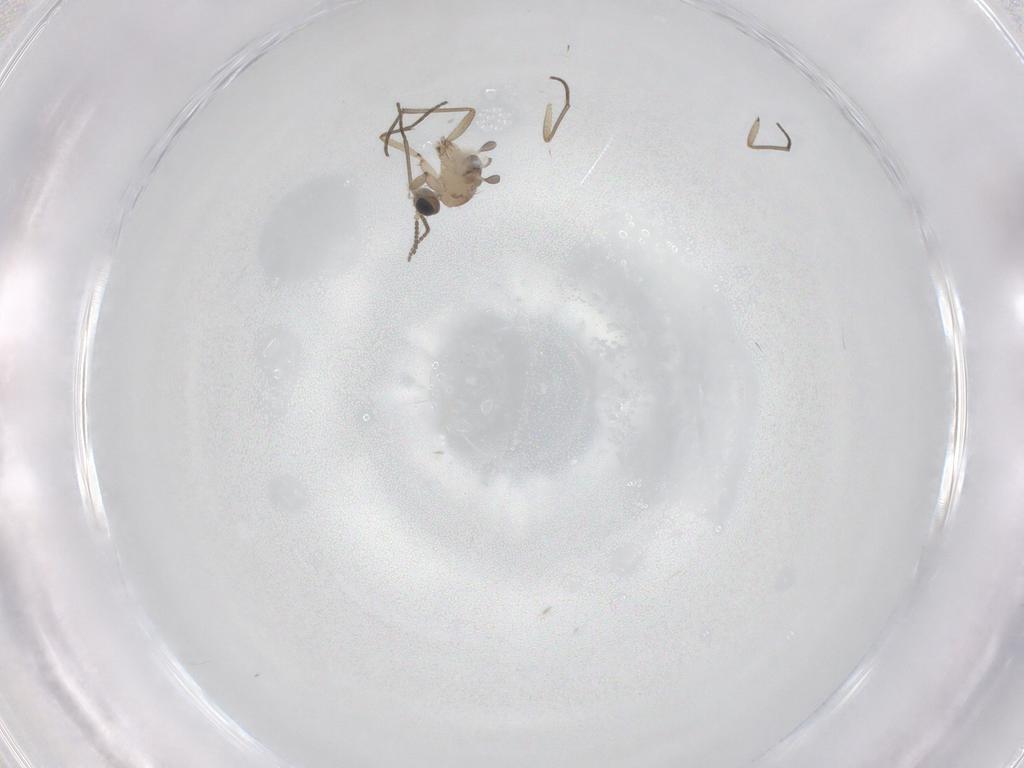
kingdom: Animalia
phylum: Arthropoda
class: Insecta
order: Diptera
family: Sciaridae
